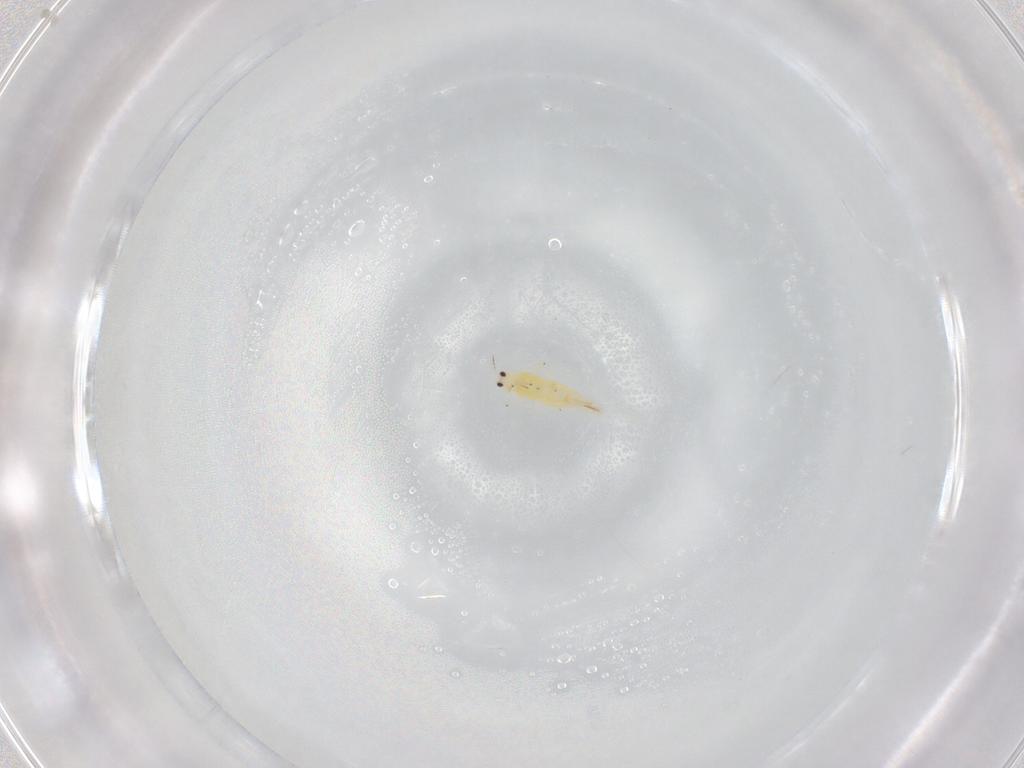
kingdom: Animalia
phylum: Arthropoda
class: Insecta
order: Thysanoptera
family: Thripidae
